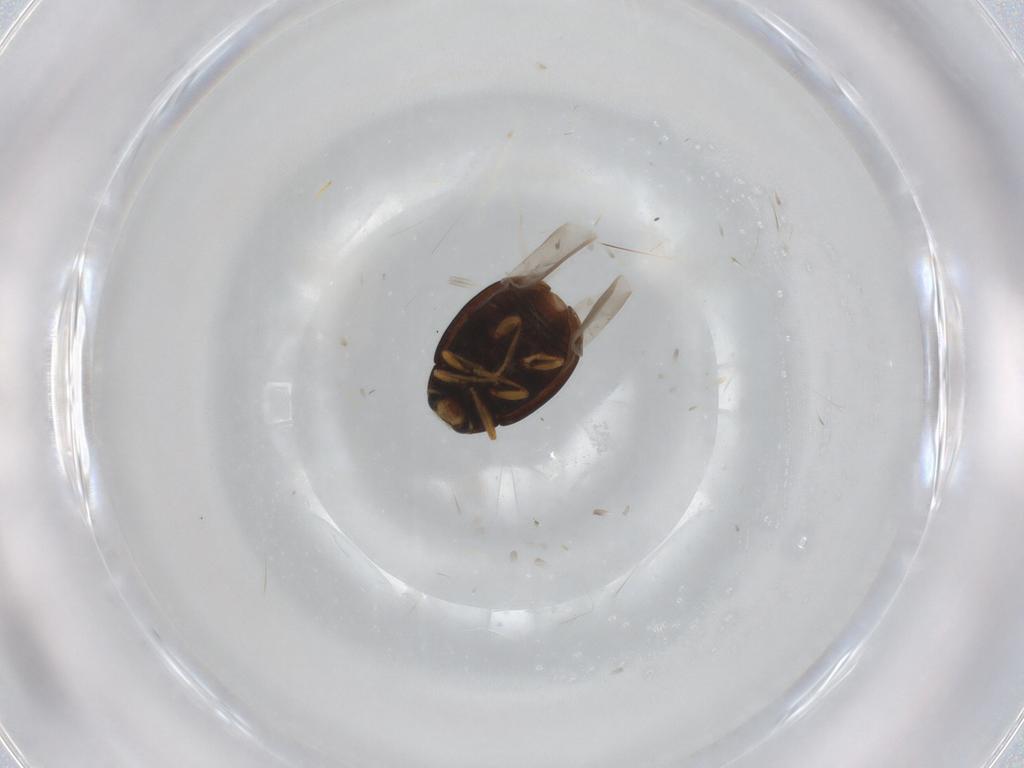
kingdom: Animalia
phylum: Arthropoda
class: Insecta
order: Coleoptera
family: Coccinellidae
